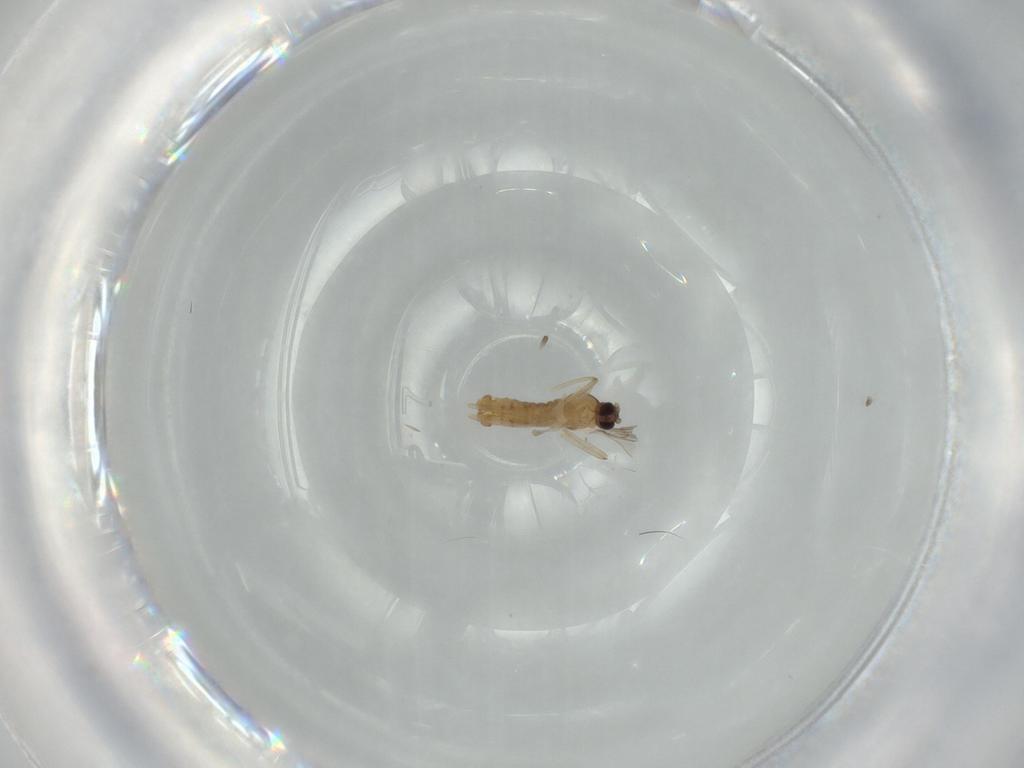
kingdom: Animalia
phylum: Arthropoda
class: Insecta
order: Diptera
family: Cecidomyiidae
